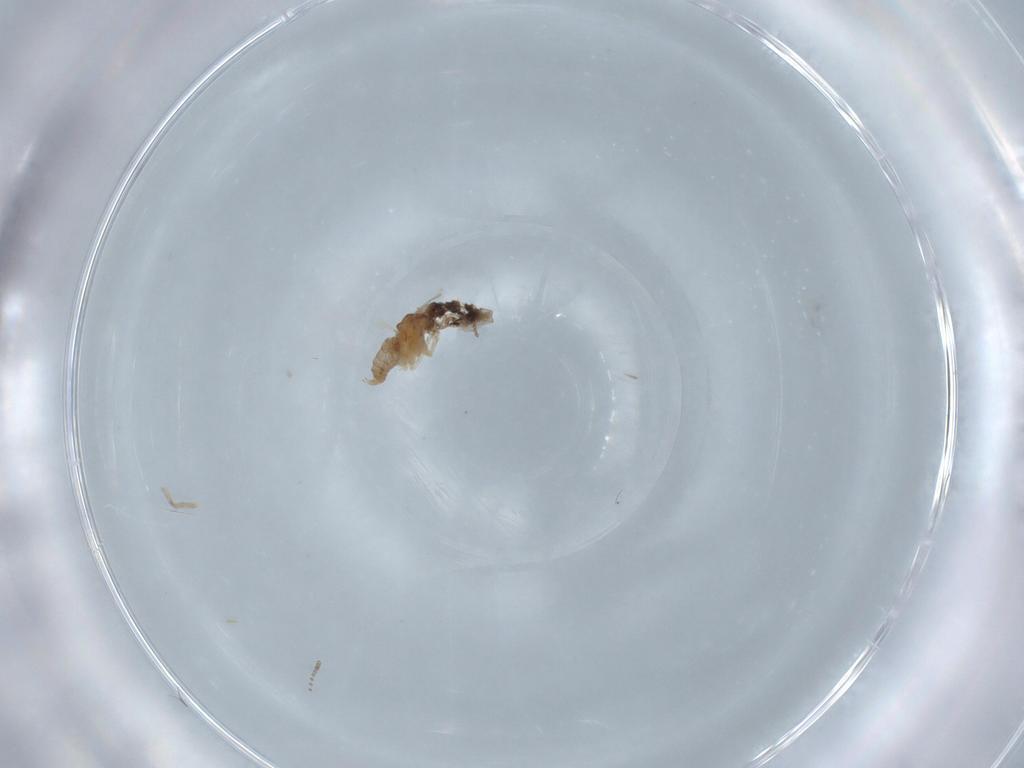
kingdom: Animalia
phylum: Arthropoda
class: Insecta
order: Diptera
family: Cecidomyiidae
